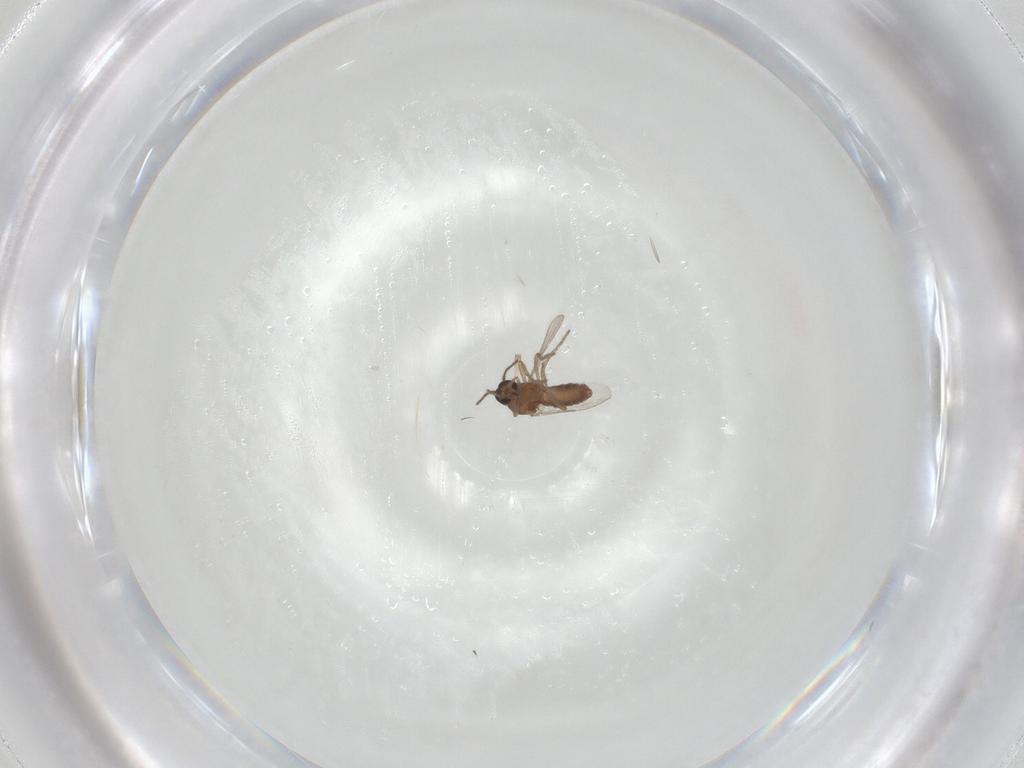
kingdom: Animalia
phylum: Arthropoda
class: Insecta
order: Diptera
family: Ceratopogonidae
